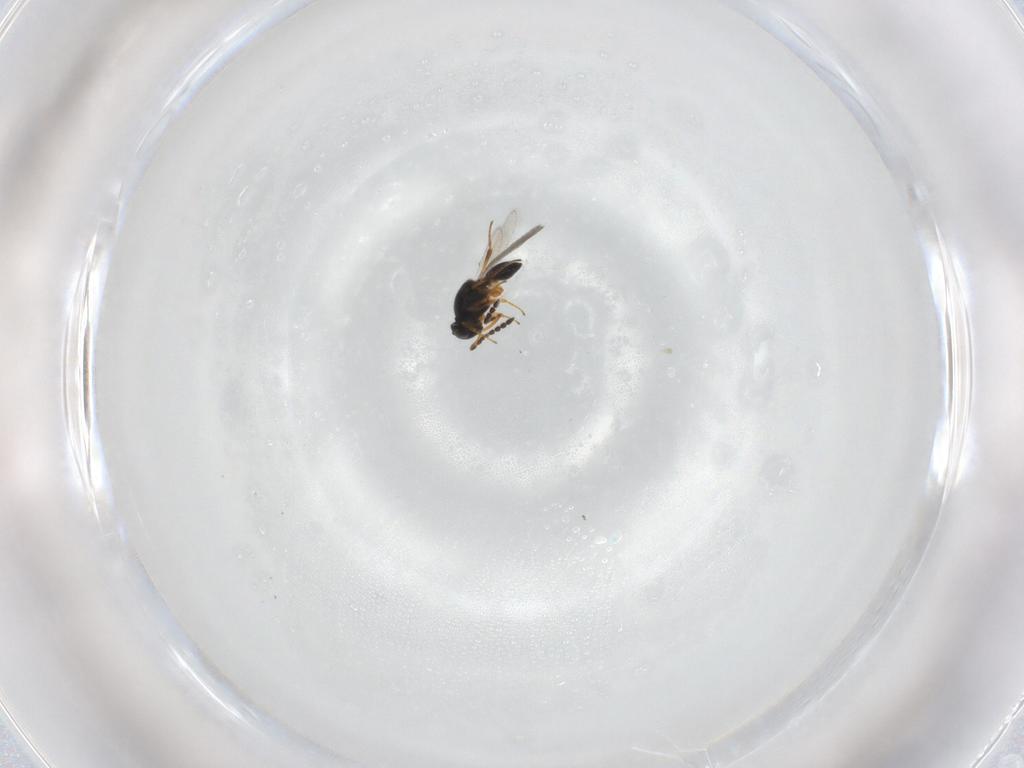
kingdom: Animalia
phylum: Arthropoda
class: Insecta
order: Hymenoptera
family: Platygastridae
